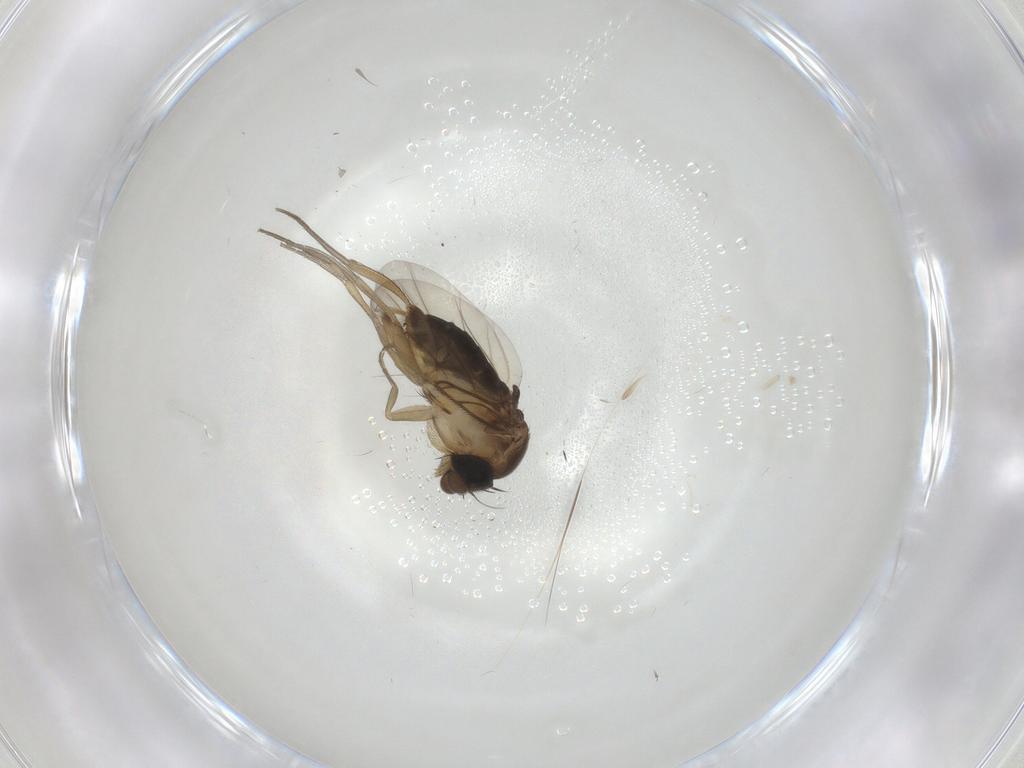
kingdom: Animalia
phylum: Arthropoda
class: Insecta
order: Diptera
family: Phoridae
